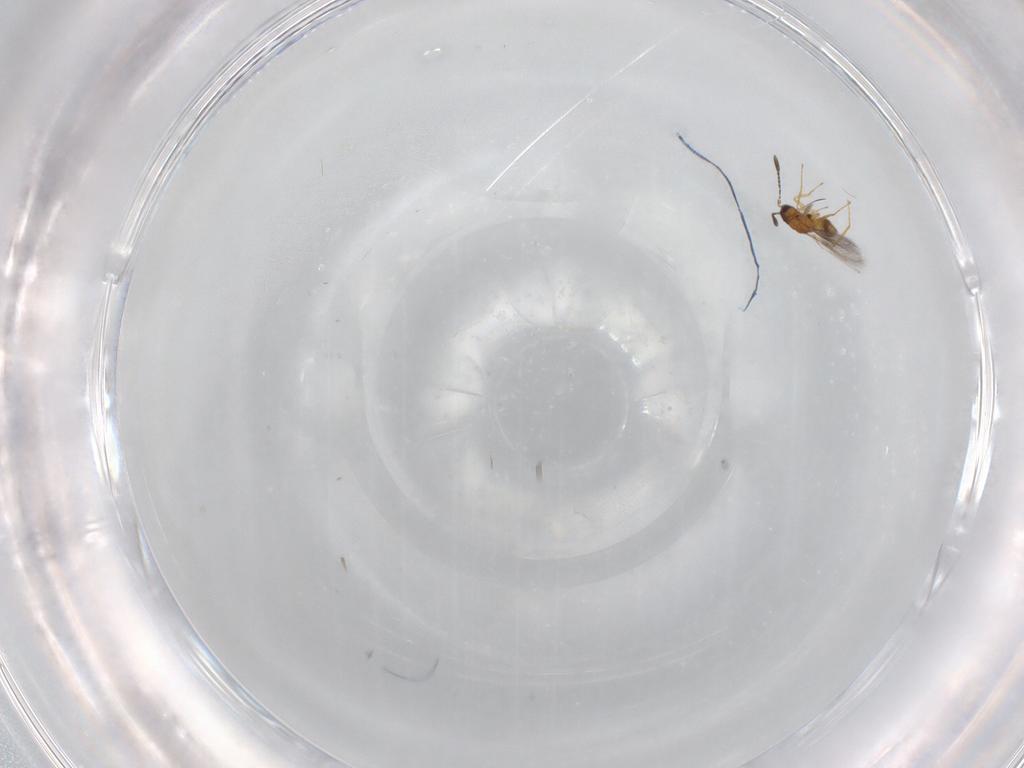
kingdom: Animalia
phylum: Arthropoda
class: Insecta
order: Hymenoptera
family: Mymaridae
